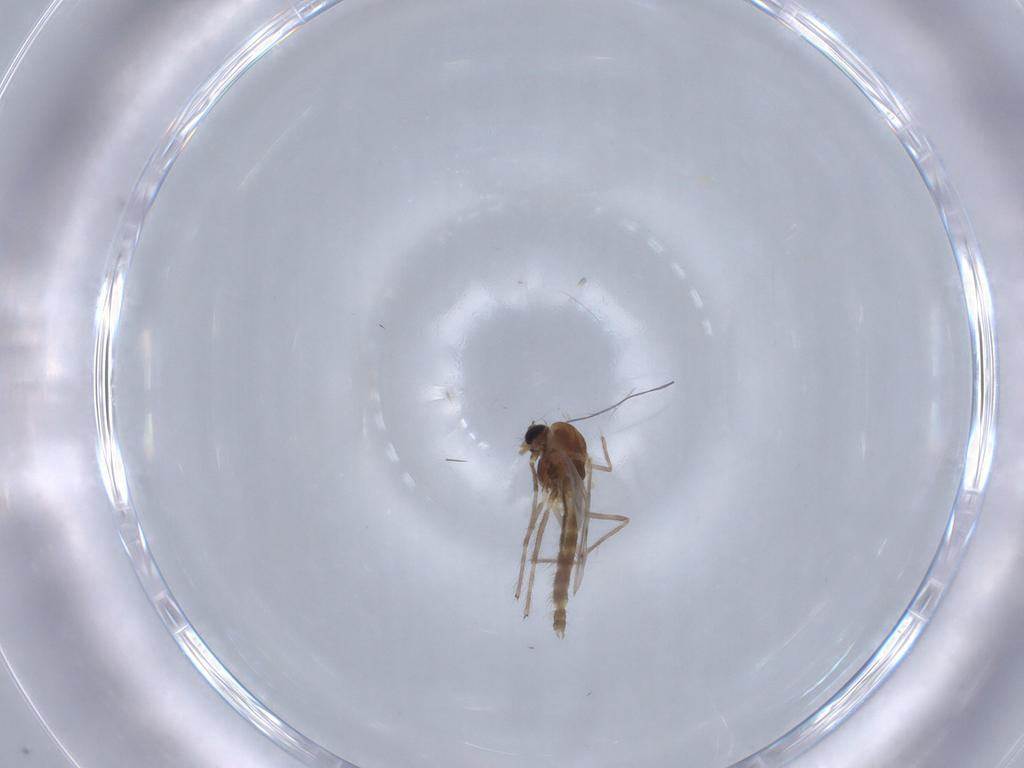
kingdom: Animalia
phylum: Arthropoda
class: Insecta
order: Diptera
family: Chironomidae
